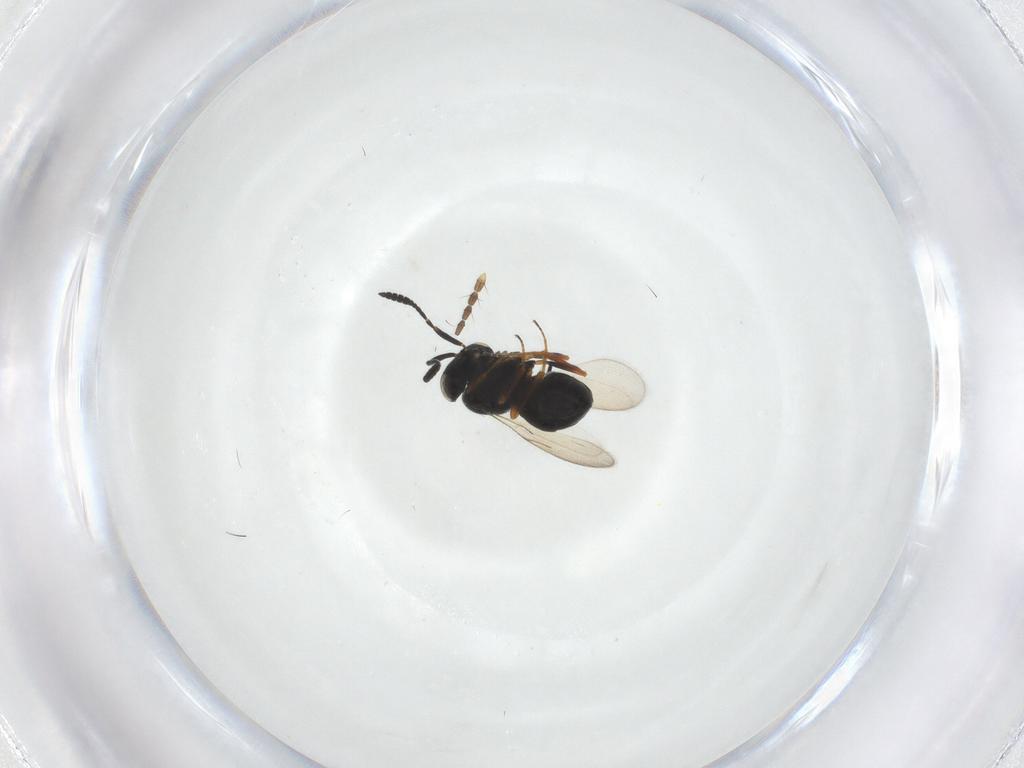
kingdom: Animalia
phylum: Arthropoda
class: Insecta
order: Hymenoptera
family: Scelionidae
